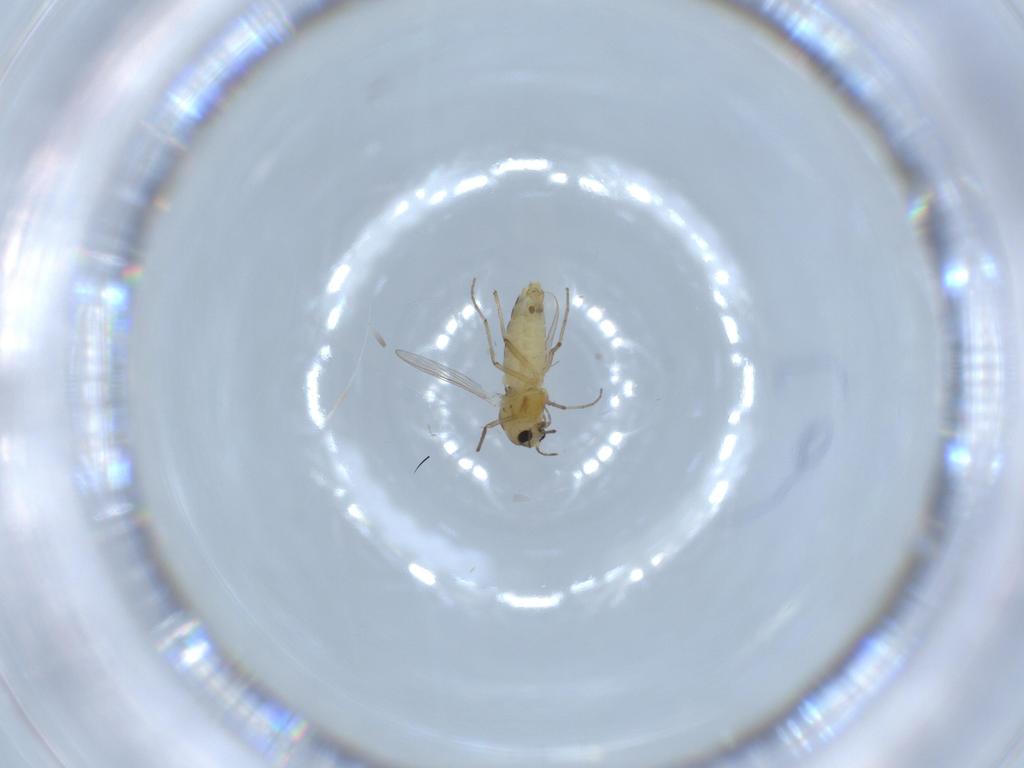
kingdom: Animalia
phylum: Arthropoda
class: Insecta
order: Diptera
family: Chironomidae
